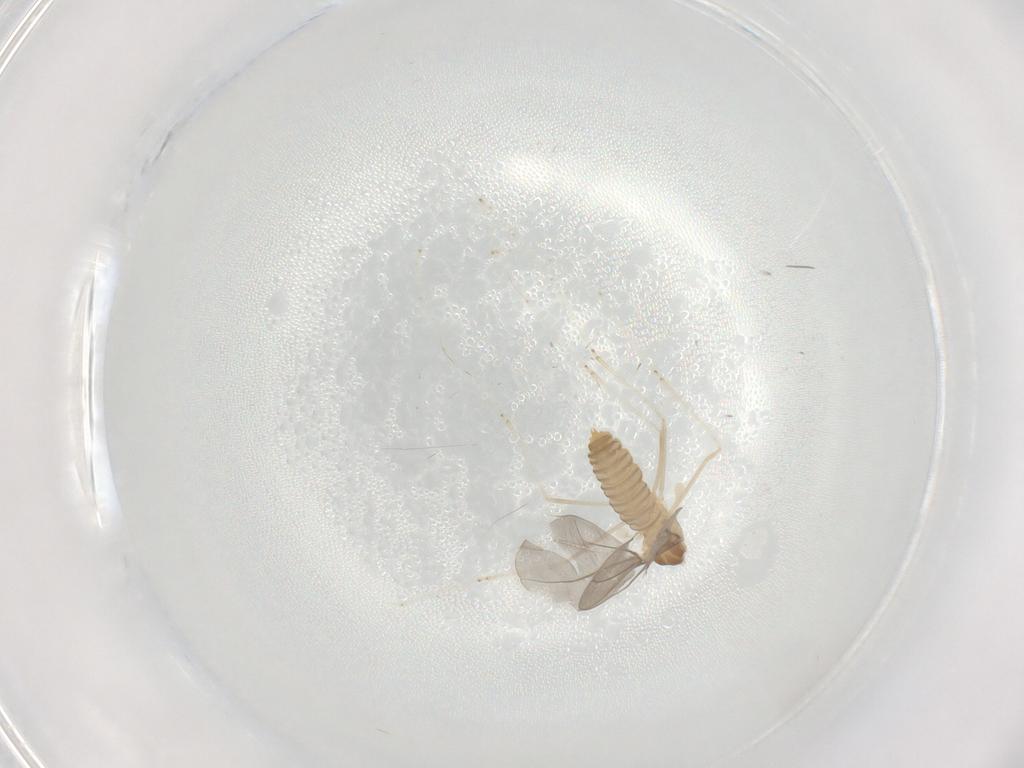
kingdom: Animalia
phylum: Arthropoda
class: Insecta
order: Diptera
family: Cecidomyiidae
